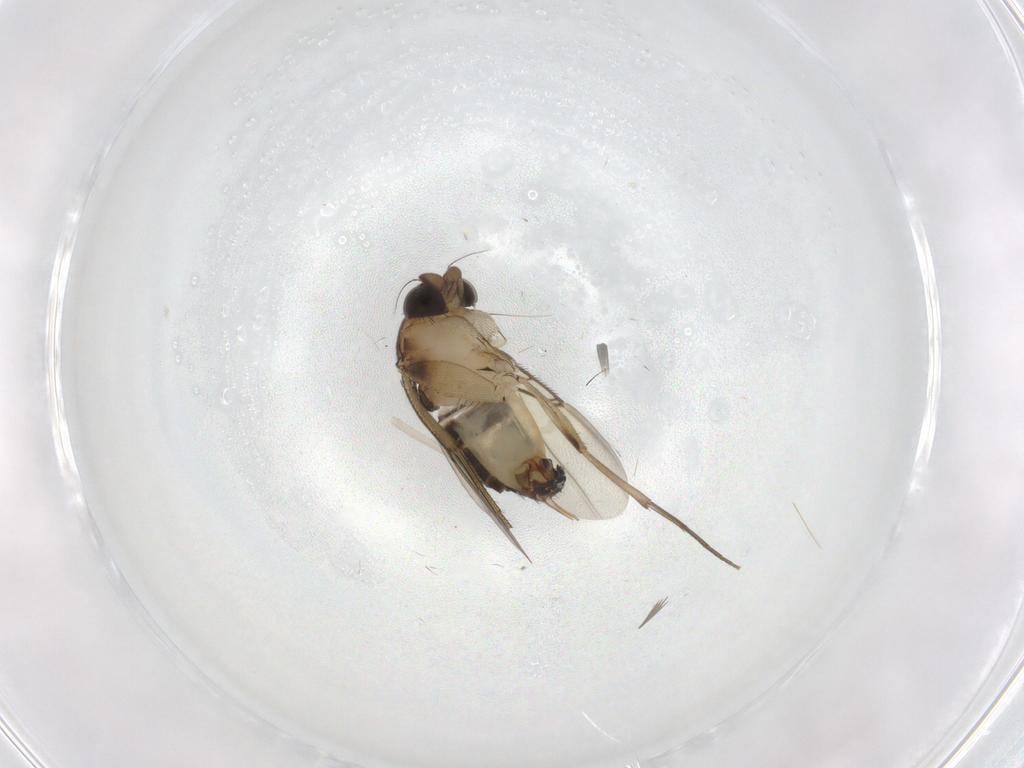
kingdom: Animalia
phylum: Arthropoda
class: Insecta
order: Diptera
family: Phoridae
